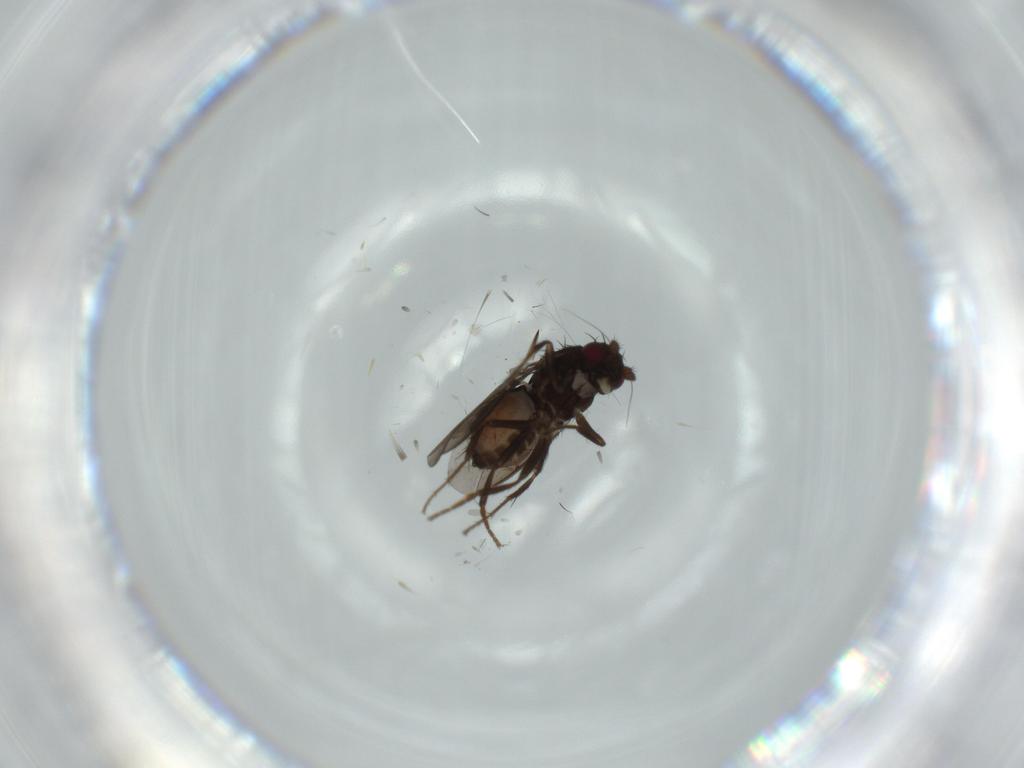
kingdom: Animalia
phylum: Arthropoda
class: Insecta
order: Diptera
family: Sphaeroceridae
